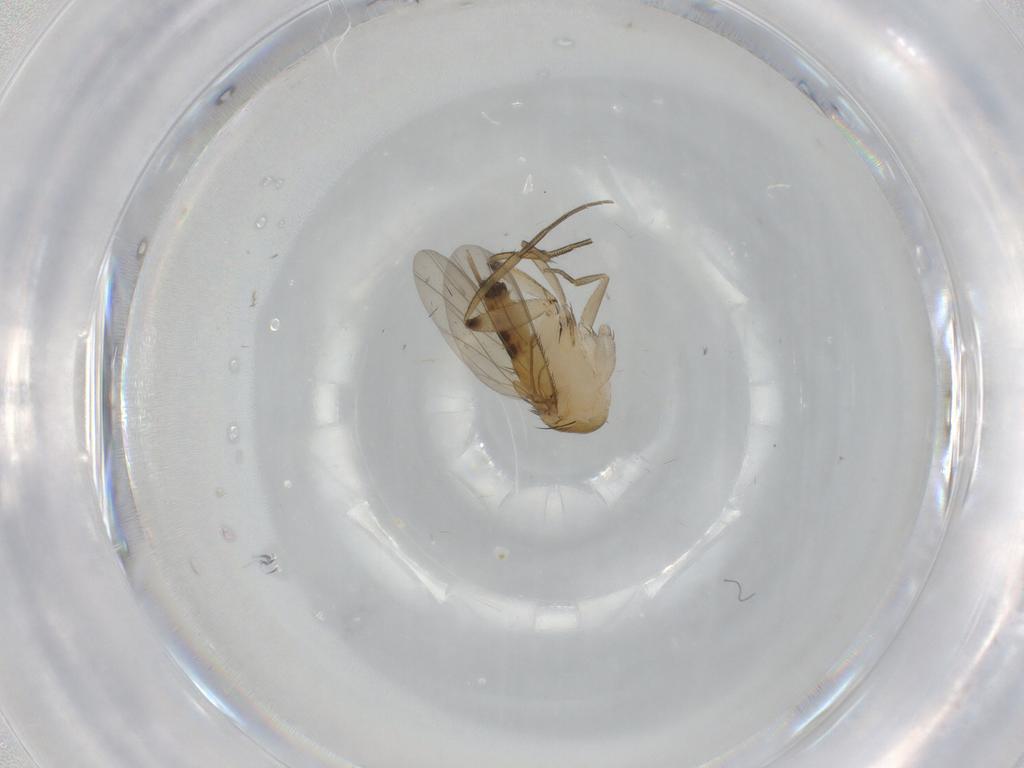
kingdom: Animalia
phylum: Arthropoda
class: Insecta
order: Diptera
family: Phoridae
